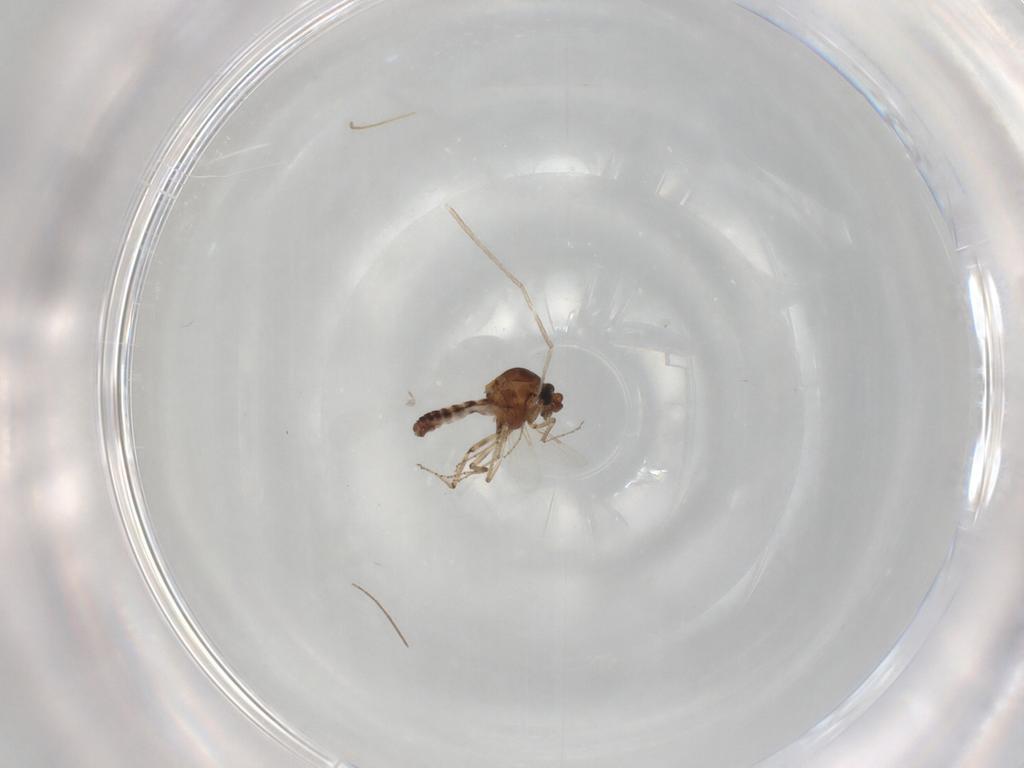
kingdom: Animalia
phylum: Arthropoda
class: Insecta
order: Diptera
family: Ceratopogonidae
